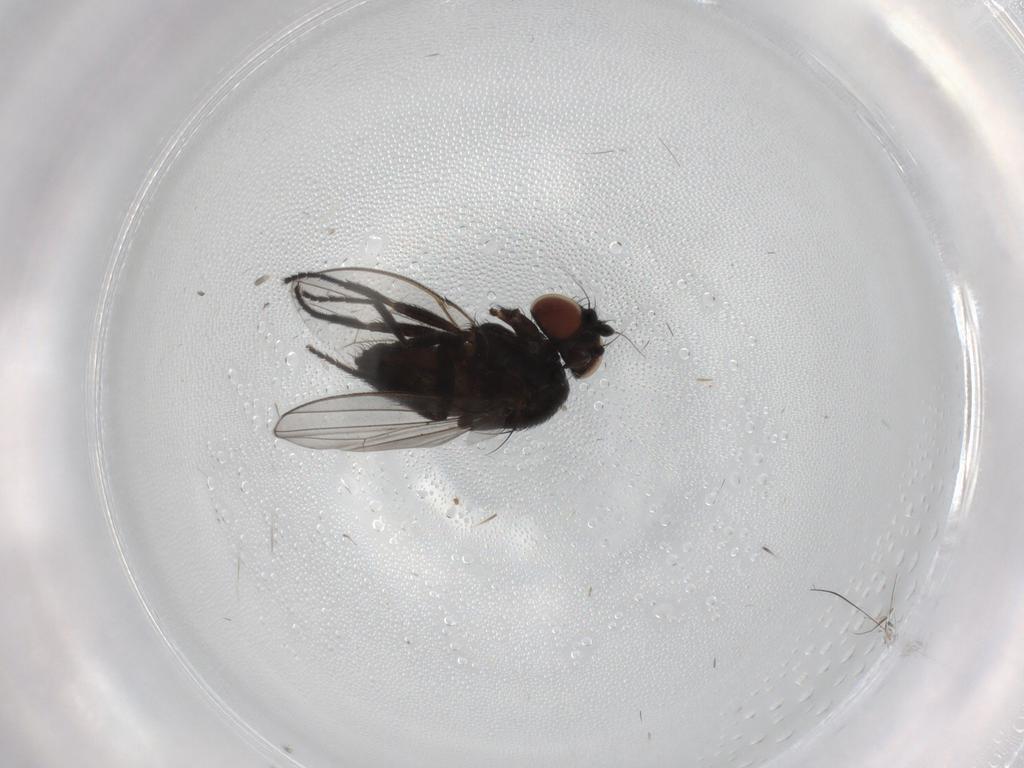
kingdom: Animalia
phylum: Arthropoda
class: Insecta
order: Diptera
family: Milichiidae
